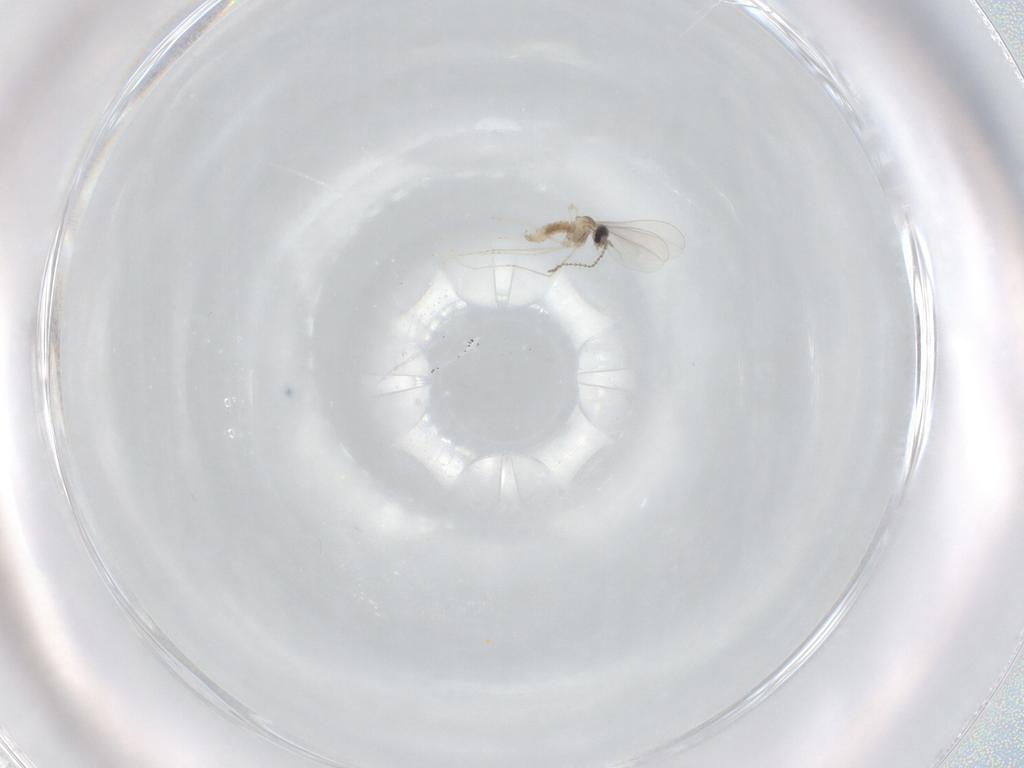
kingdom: Animalia
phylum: Arthropoda
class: Insecta
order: Diptera
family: Cecidomyiidae
